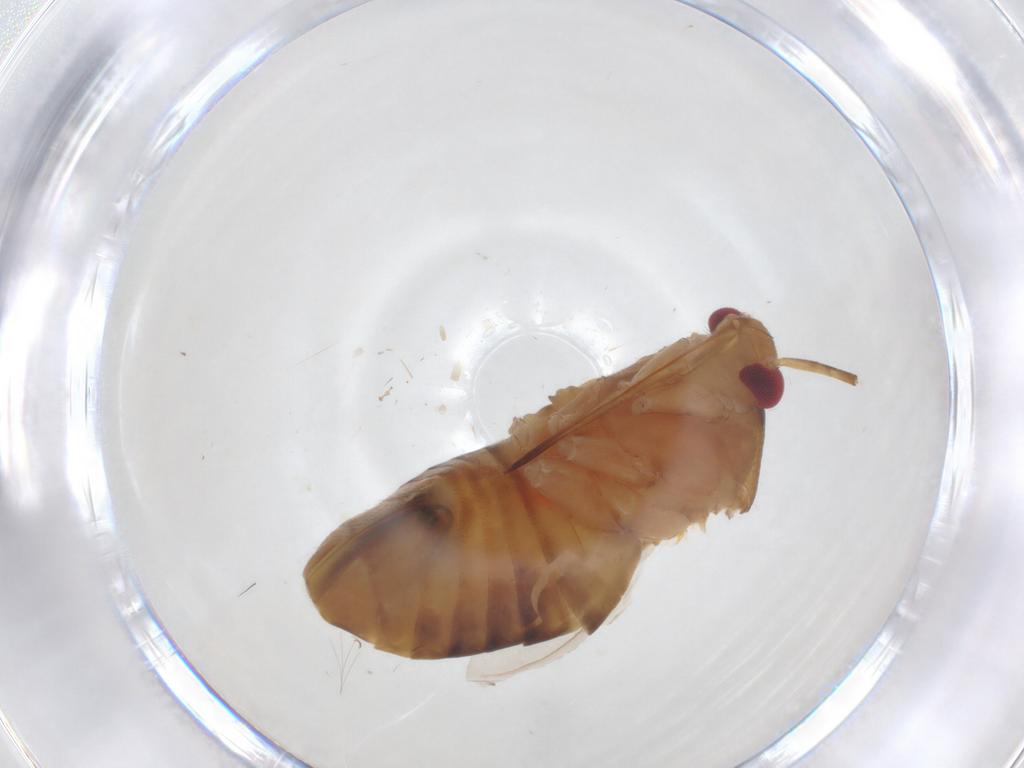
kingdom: Animalia
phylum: Arthropoda
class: Insecta
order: Hemiptera
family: Miridae
